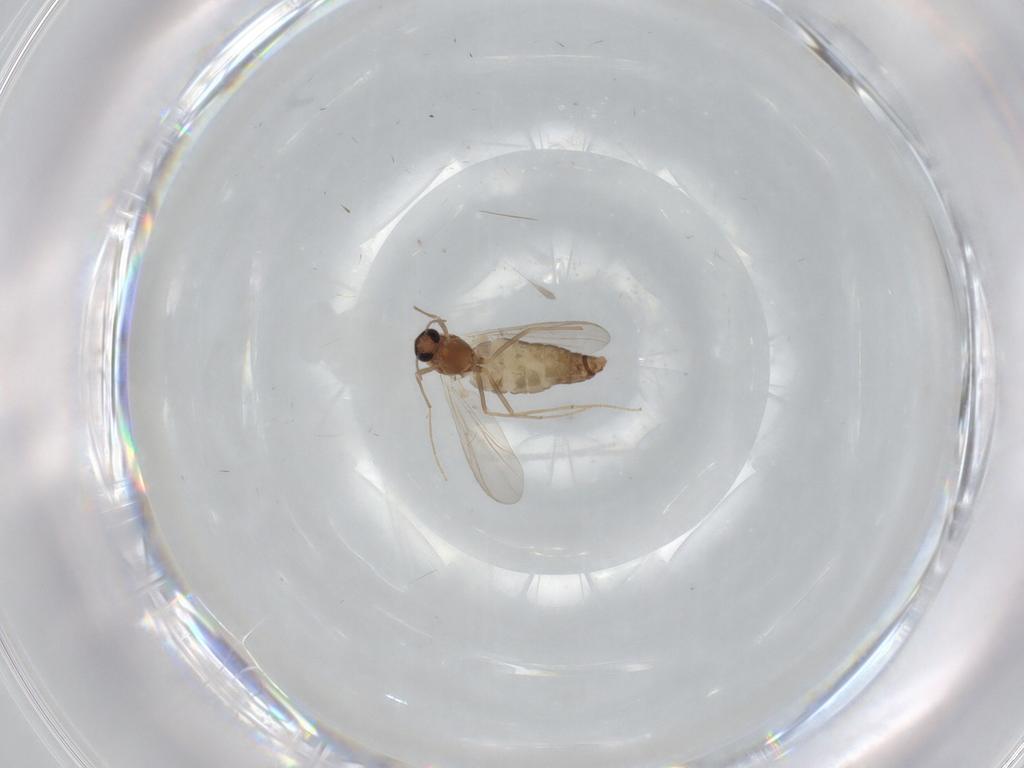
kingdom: Animalia
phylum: Arthropoda
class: Insecta
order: Diptera
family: Chironomidae
